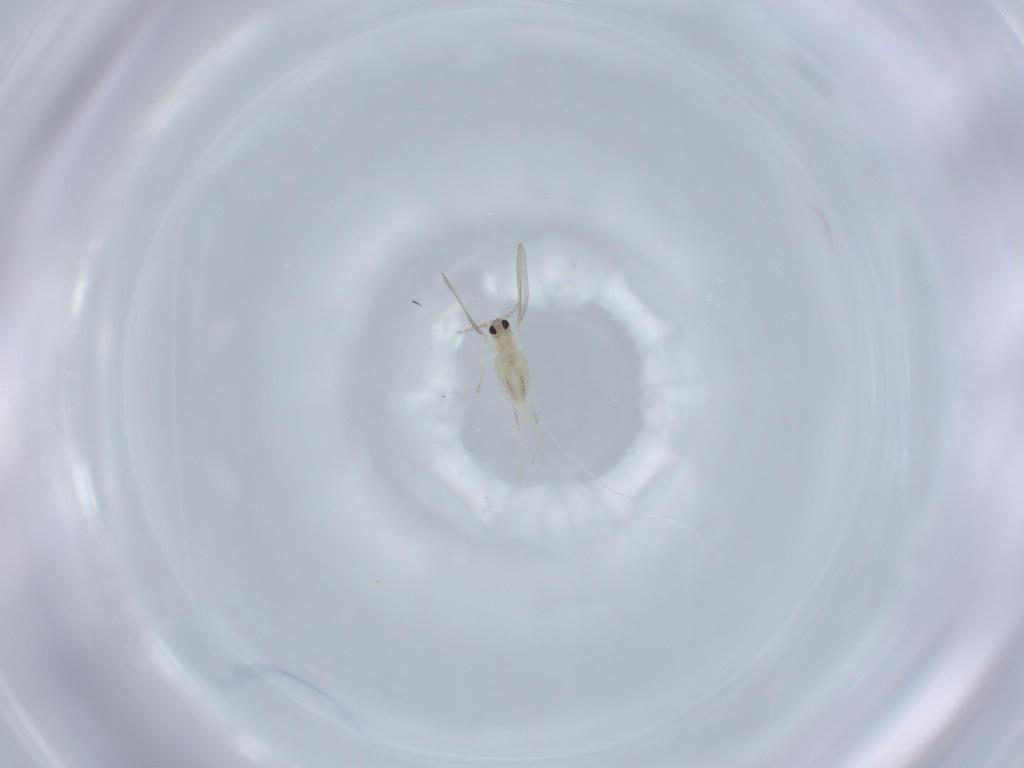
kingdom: Animalia
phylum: Arthropoda
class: Insecta
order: Diptera
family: Cecidomyiidae
